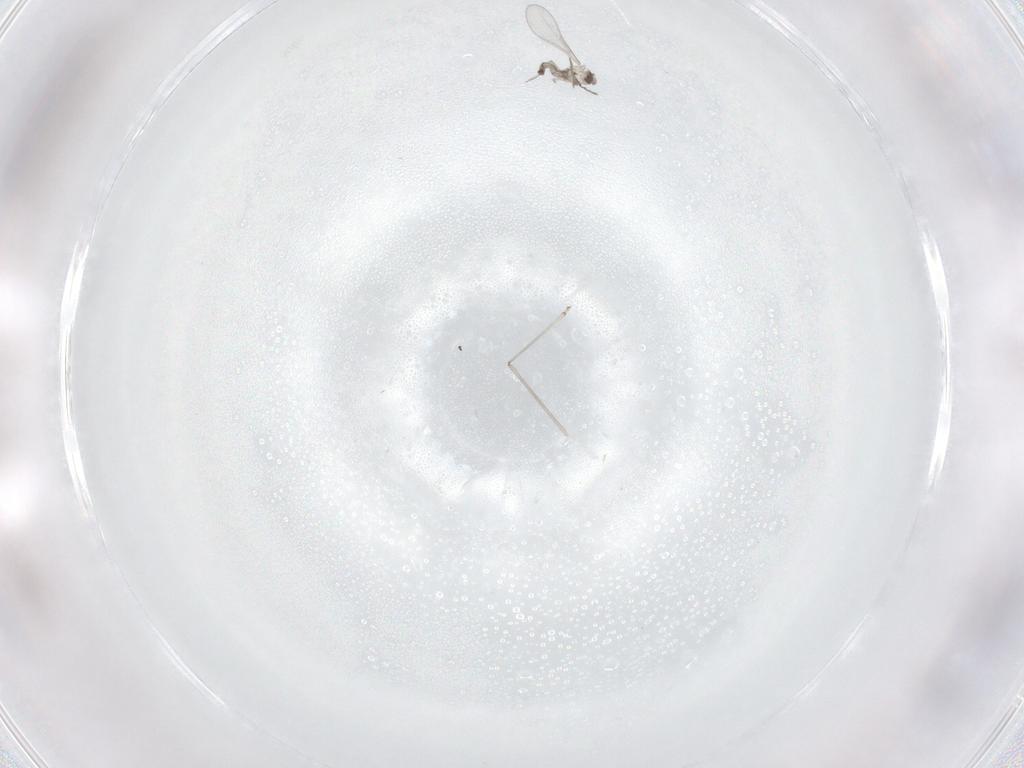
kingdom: Animalia
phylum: Arthropoda
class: Insecta
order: Diptera
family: Cecidomyiidae
